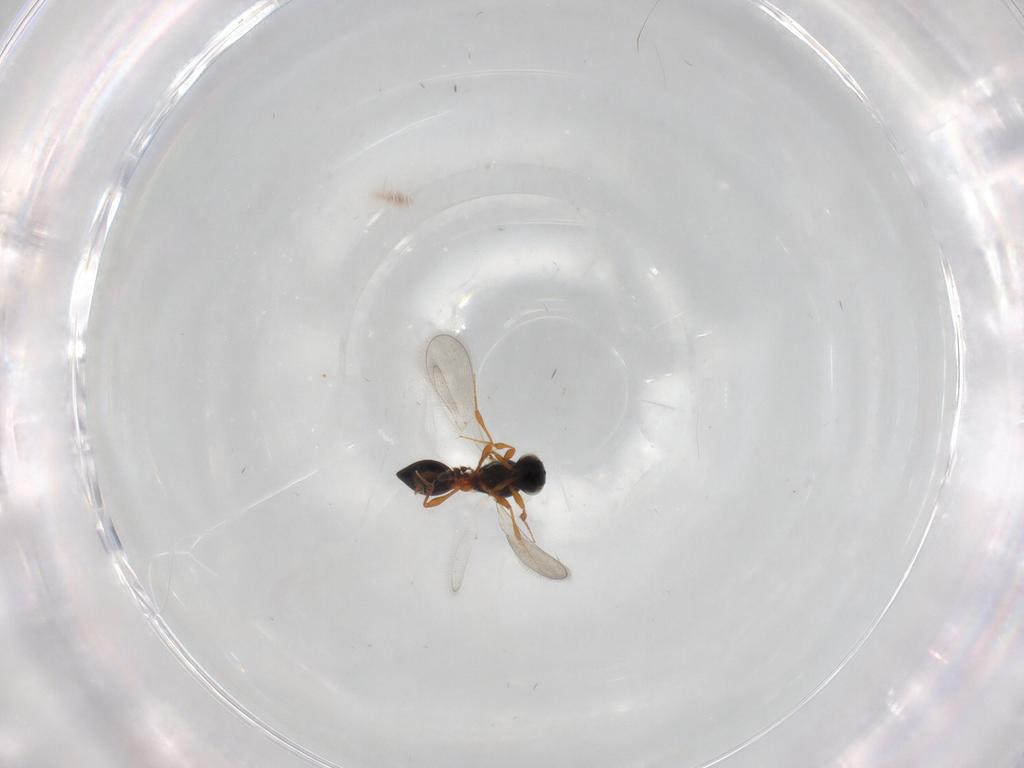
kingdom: Animalia
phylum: Arthropoda
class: Insecta
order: Hymenoptera
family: Platygastridae
